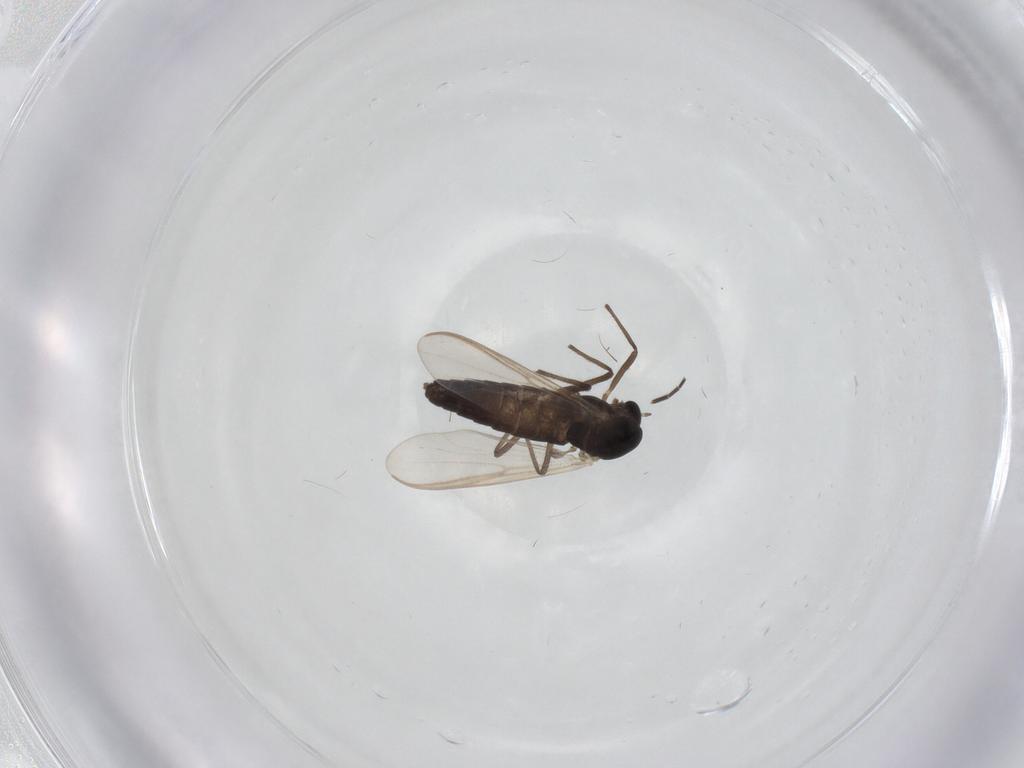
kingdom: Animalia
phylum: Arthropoda
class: Insecta
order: Diptera
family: Phoridae
